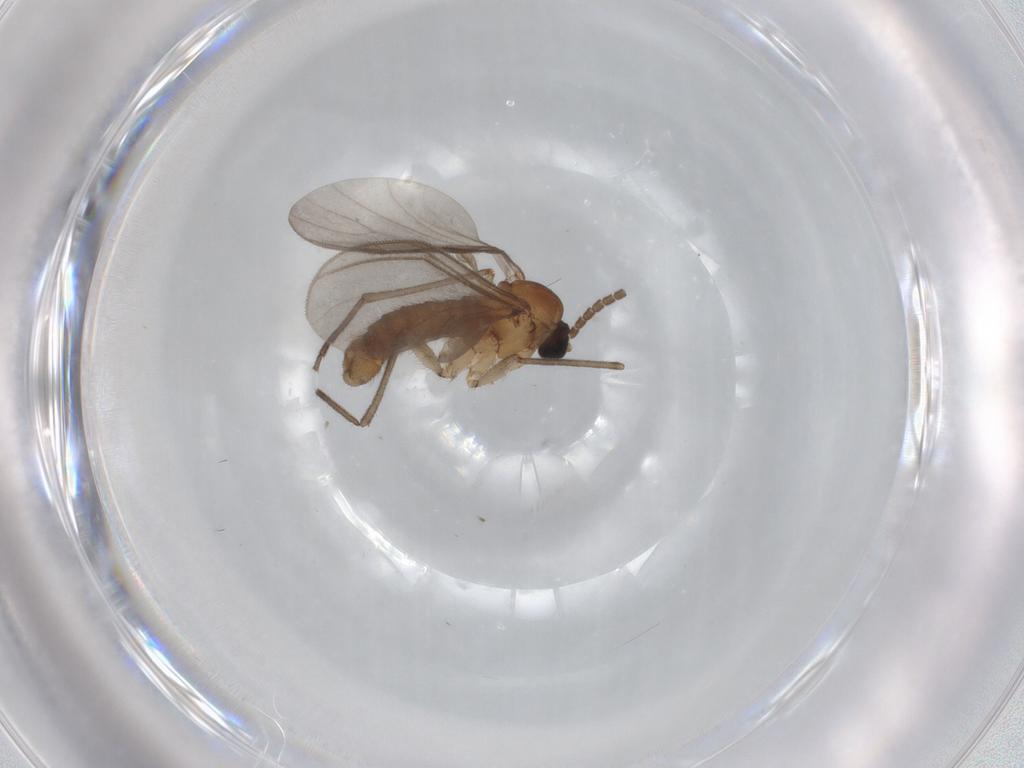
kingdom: Animalia
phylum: Arthropoda
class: Insecta
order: Diptera
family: Sciaridae
